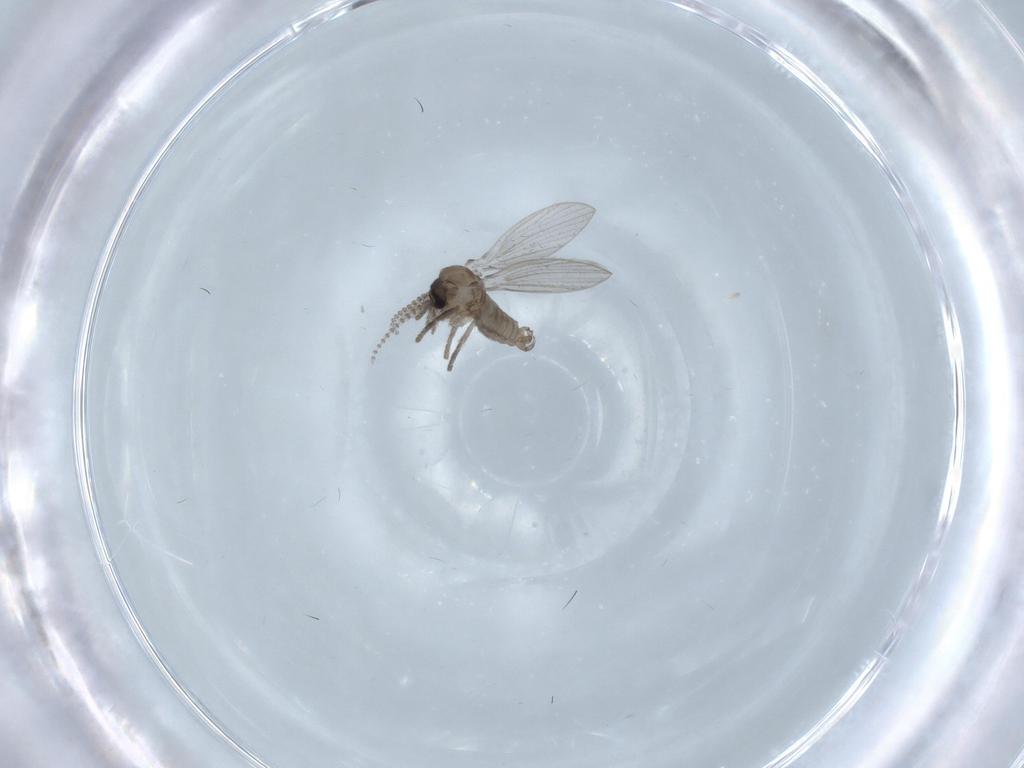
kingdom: Animalia
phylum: Arthropoda
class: Insecta
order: Diptera
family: Psychodidae
